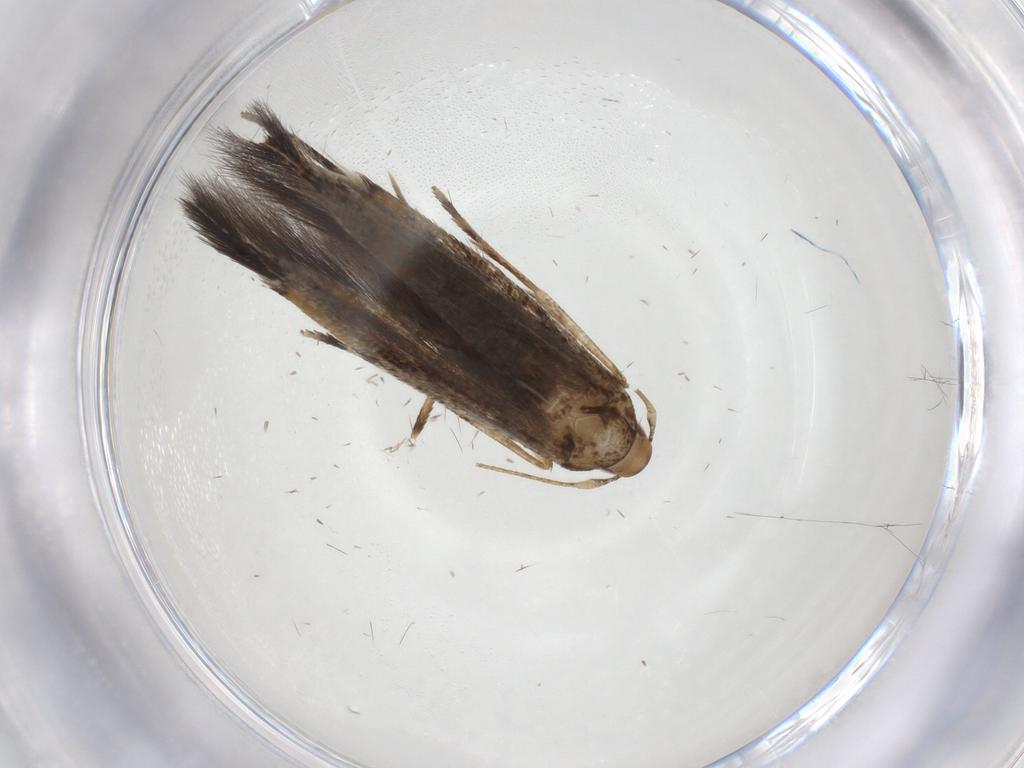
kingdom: Animalia
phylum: Arthropoda
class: Insecta
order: Lepidoptera
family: Cosmopterigidae
